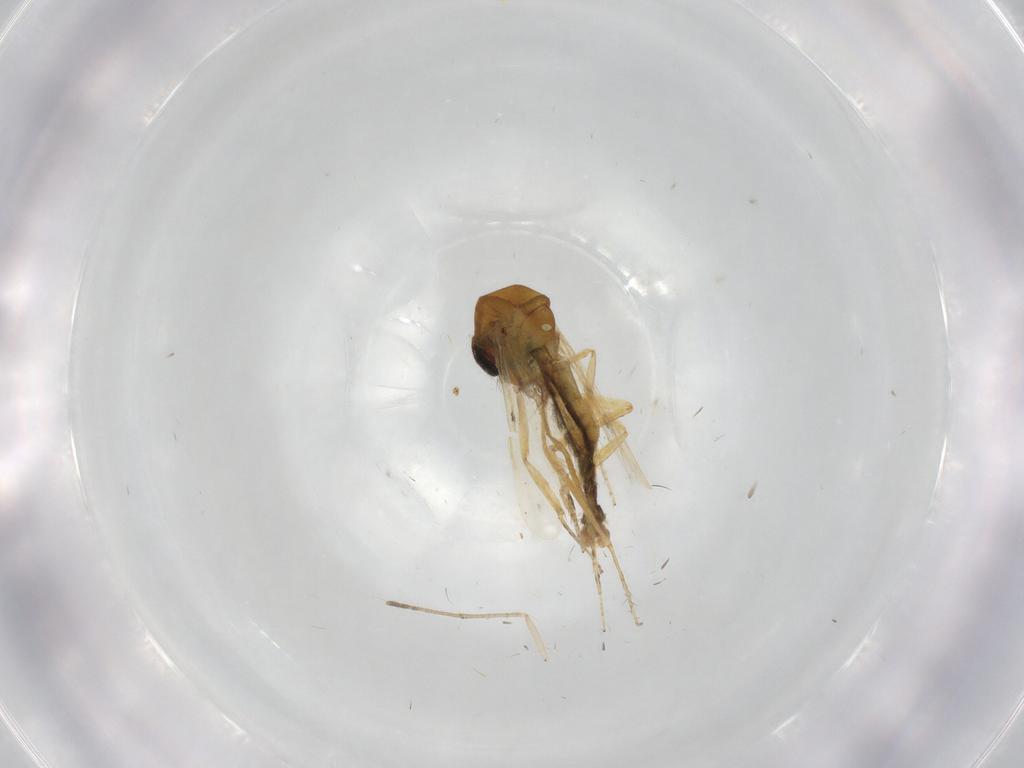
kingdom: Animalia
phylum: Arthropoda
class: Insecta
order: Diptera
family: Ceratopogonidae
